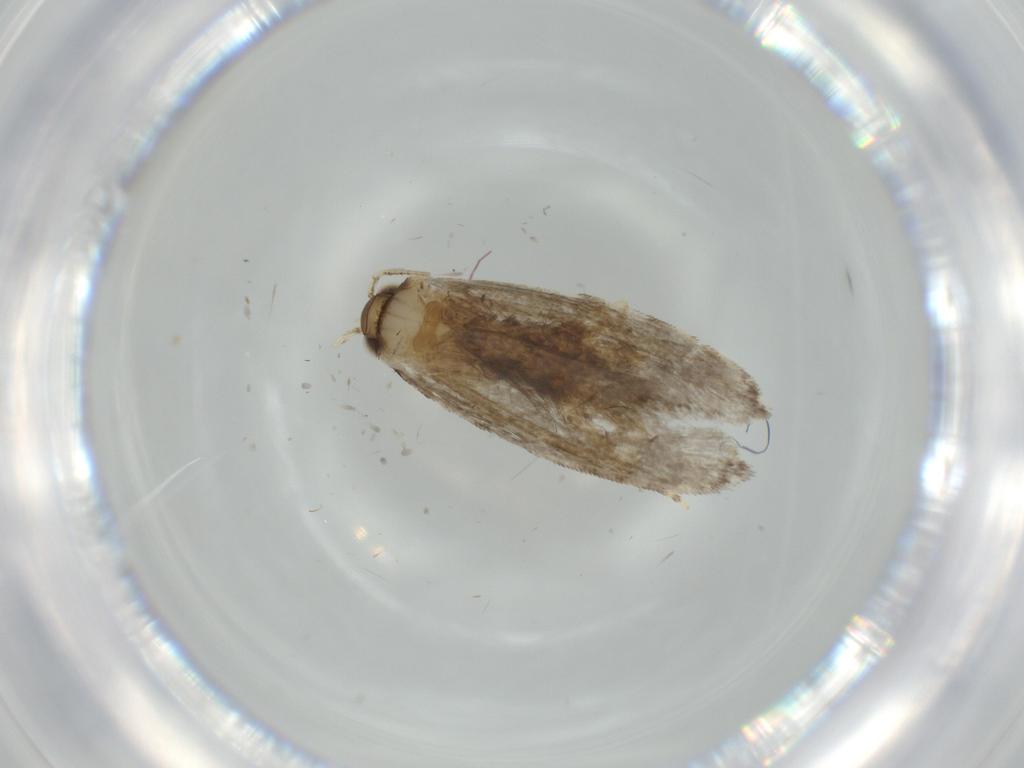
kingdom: Animalia
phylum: Arthropoda
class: Insecta
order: Lepidoptera
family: Tineidae
